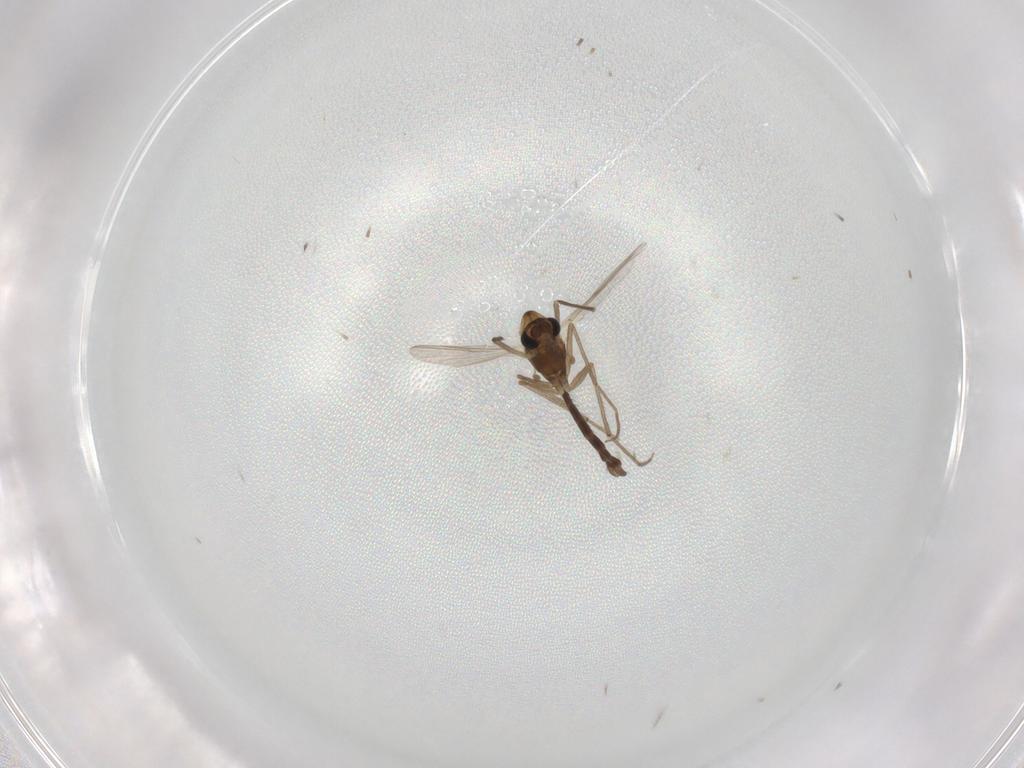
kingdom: Animalia
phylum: Arthropoda
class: Insecta
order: Diptera
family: Chironomidae
